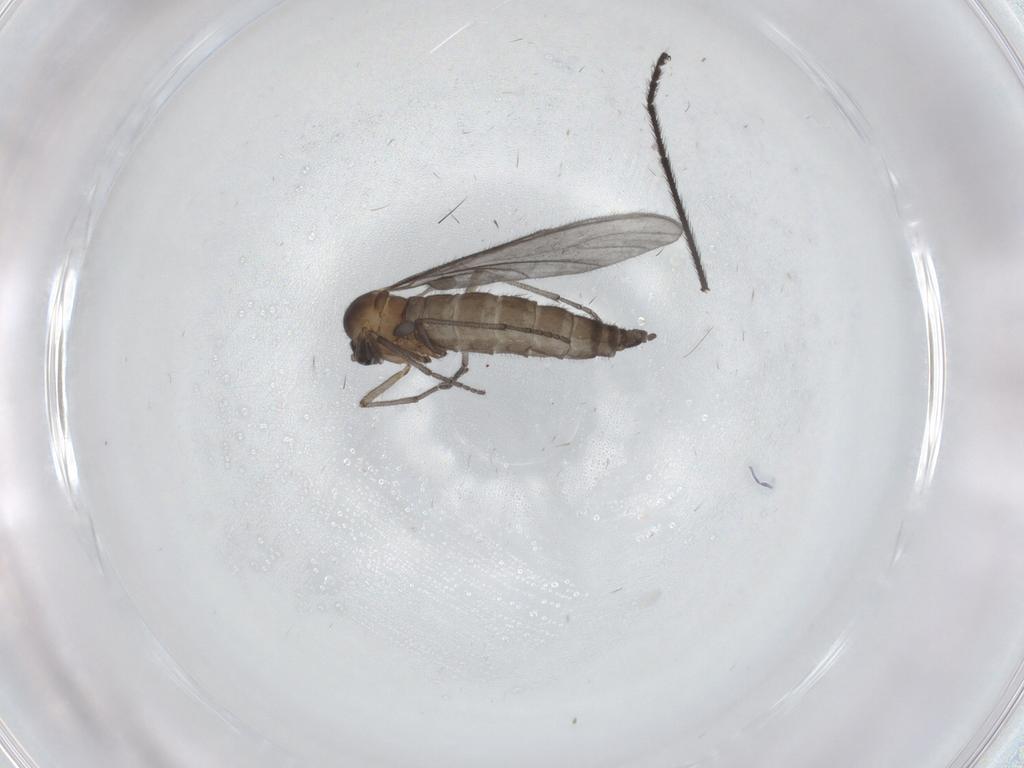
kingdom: Animalia
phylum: Arthropoda
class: Insecta
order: Diptera
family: Sciaridae
